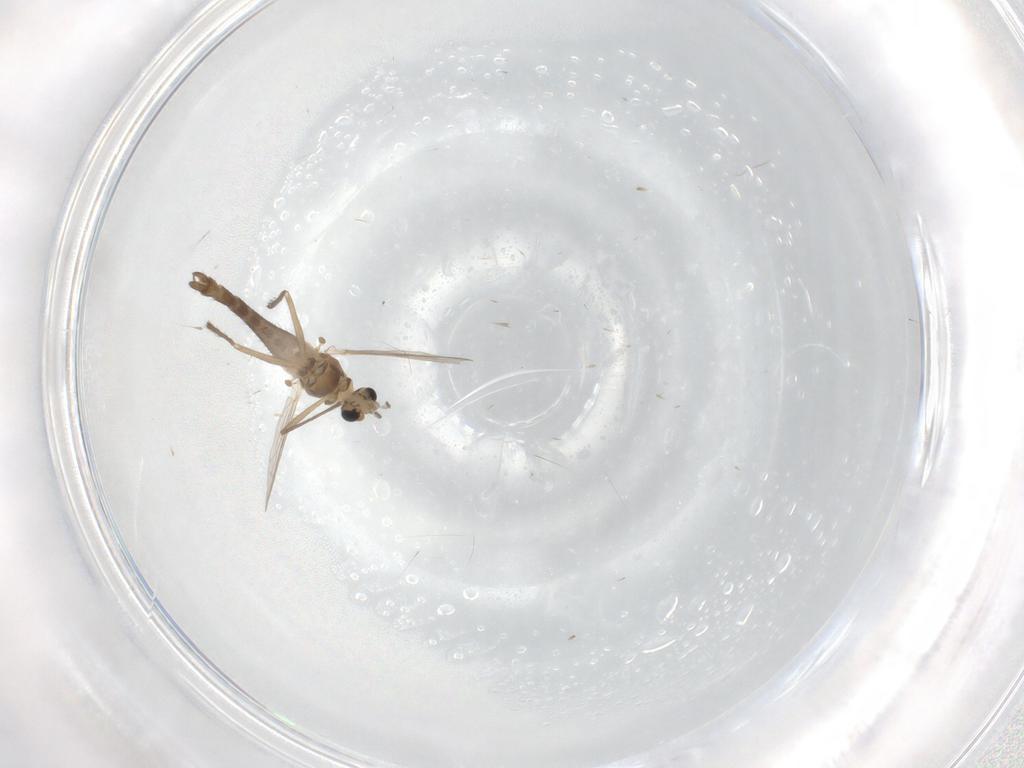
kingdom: Animalia
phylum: Arthropoda
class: Insecta
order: Diptera
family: Chironomidae
